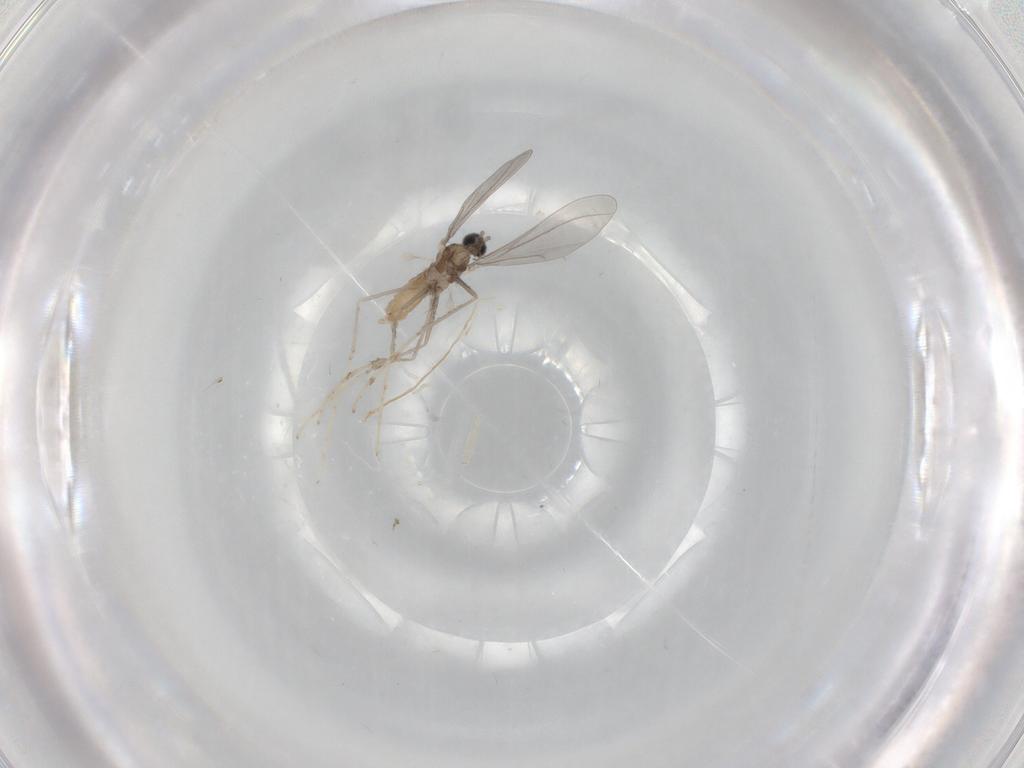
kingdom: Animalia
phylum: Arthropoda
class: Insecta
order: Diptera
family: Cecidomyiidae
